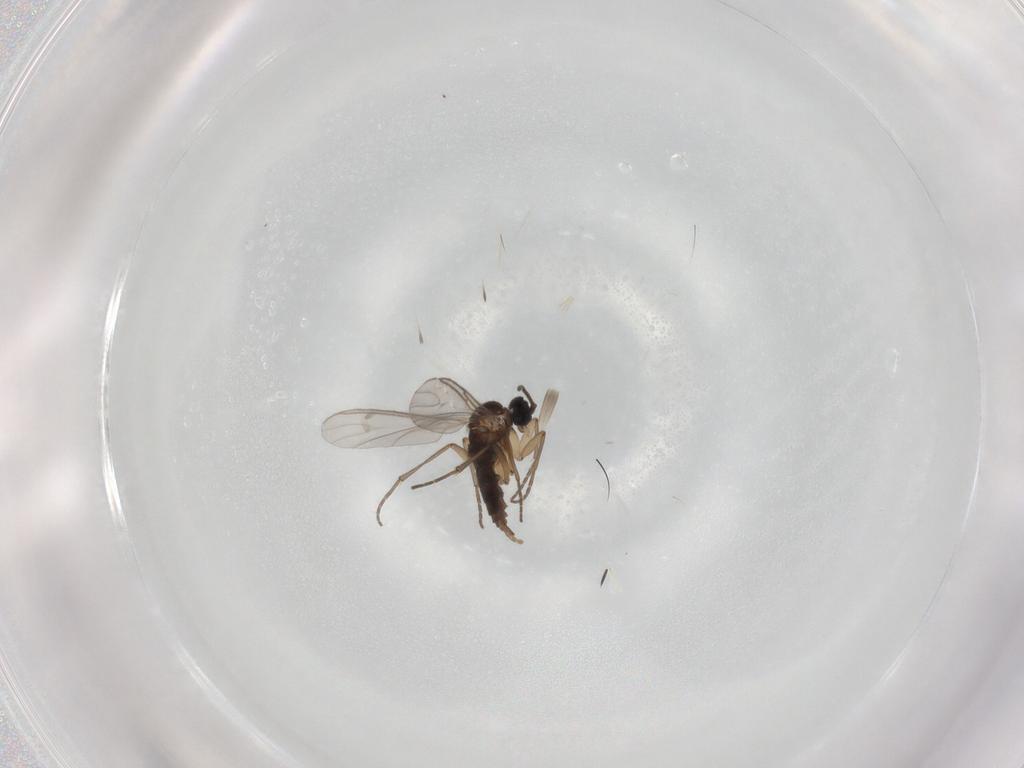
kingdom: Animalia
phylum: Arthropoda
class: Insecta
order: Diptera
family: Sciaridae
